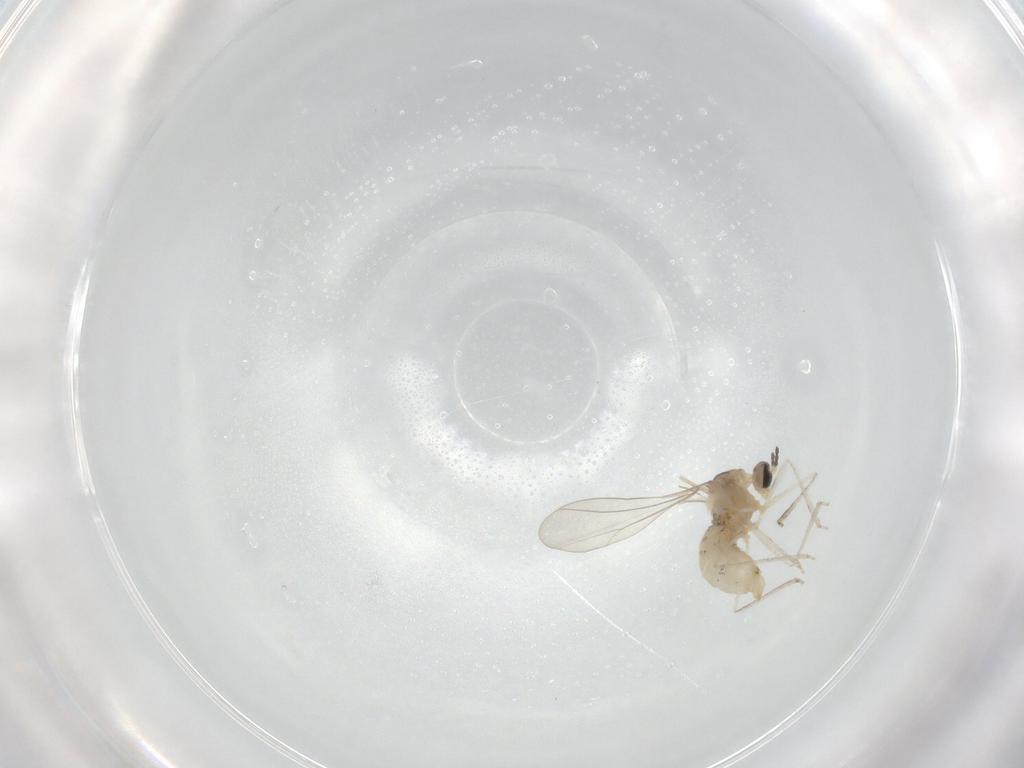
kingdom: Animalia
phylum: Arthropoda
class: Insecta
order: Diptera
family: Cecidomyiidae
